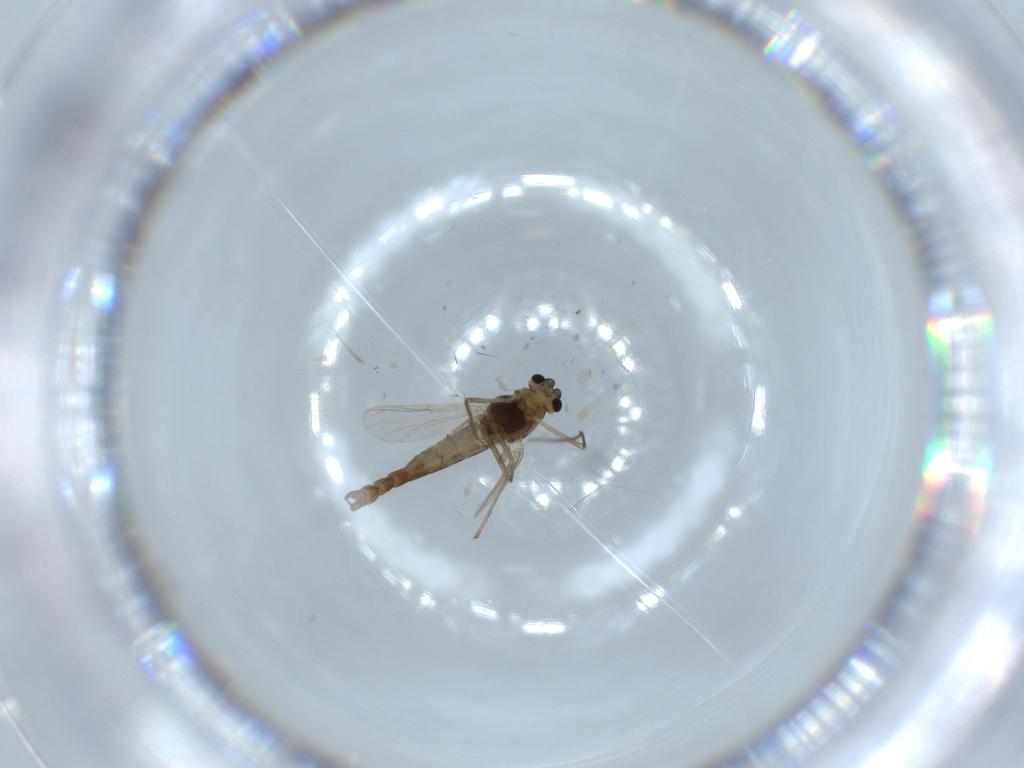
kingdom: Animalia
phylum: Arthropoda
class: Insecta
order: Diptera
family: Chironomidae
